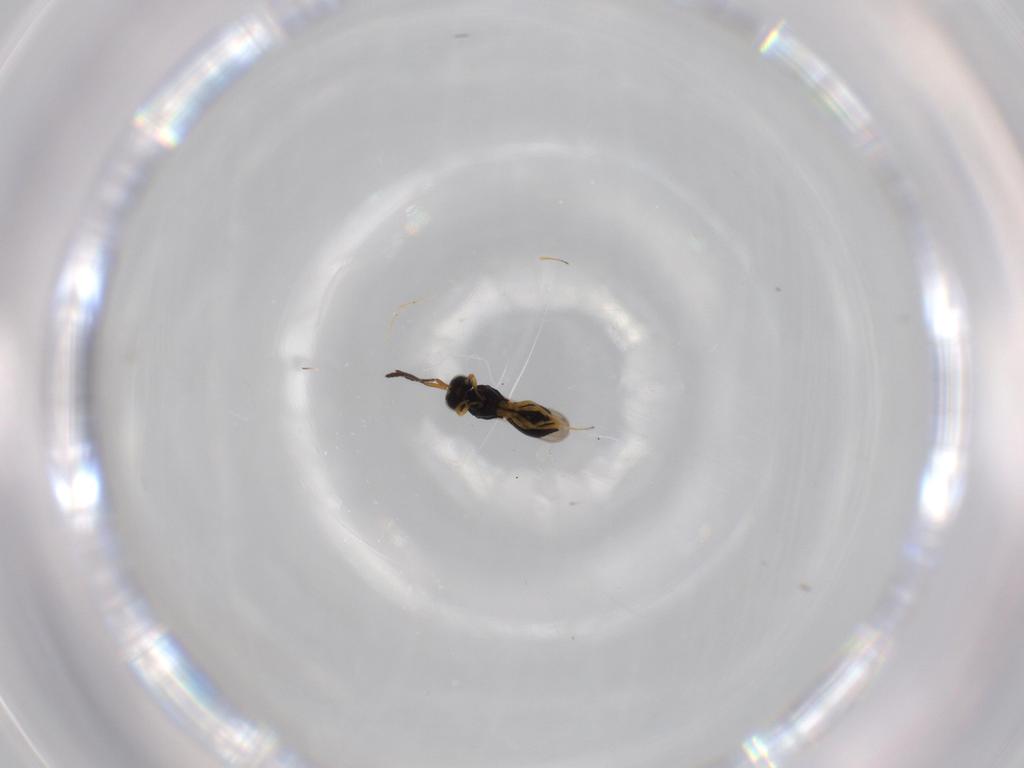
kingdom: Animalia
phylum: Arthropoda
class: Insecta
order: Hymenoptera
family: Scelionidae
